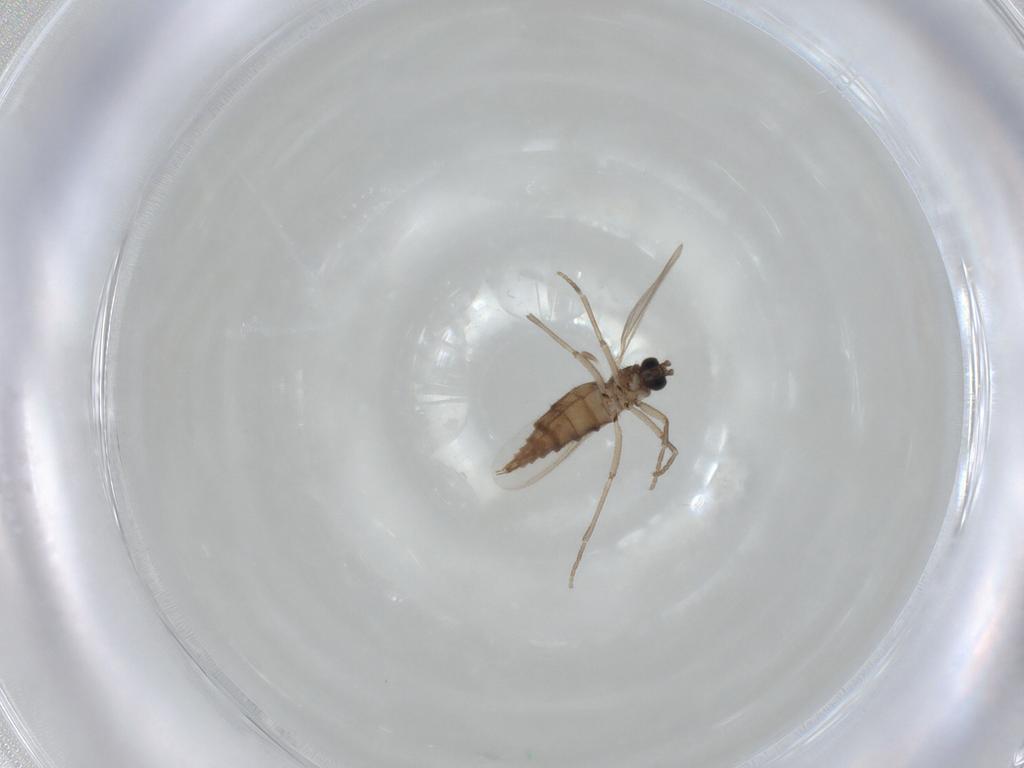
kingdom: Animalia
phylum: Arthropoda
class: Insecta
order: Diptera
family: Sciaridae
